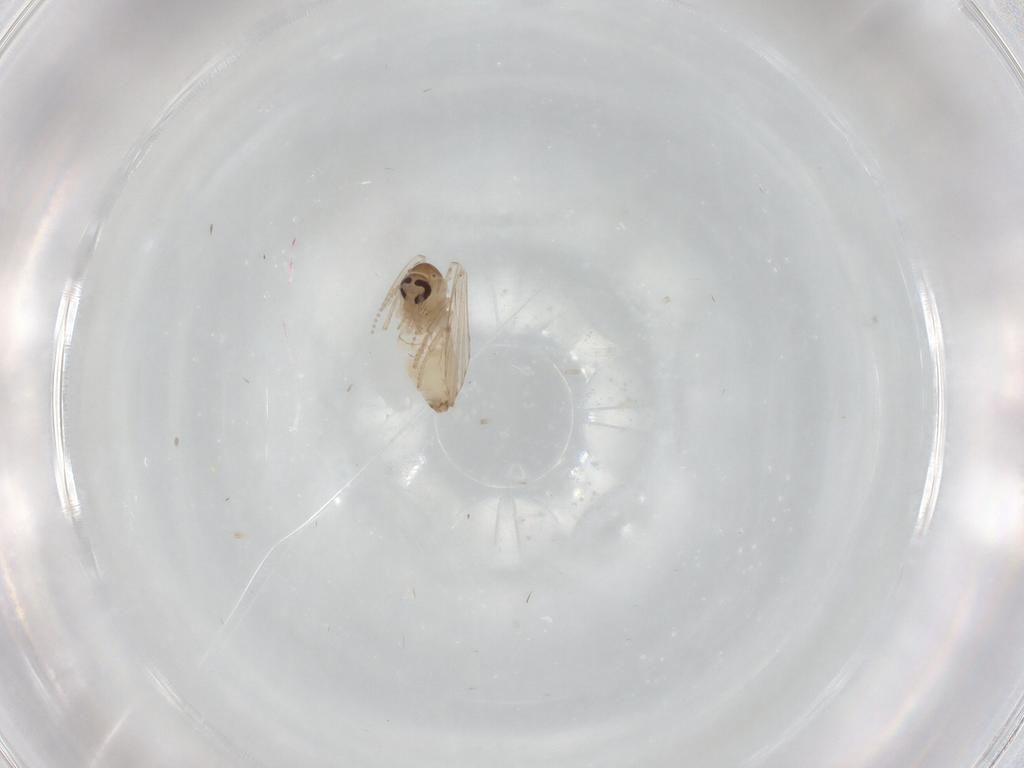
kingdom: Animalia
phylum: Arthropoda
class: Insecta
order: Diptera
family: Psychodidae
